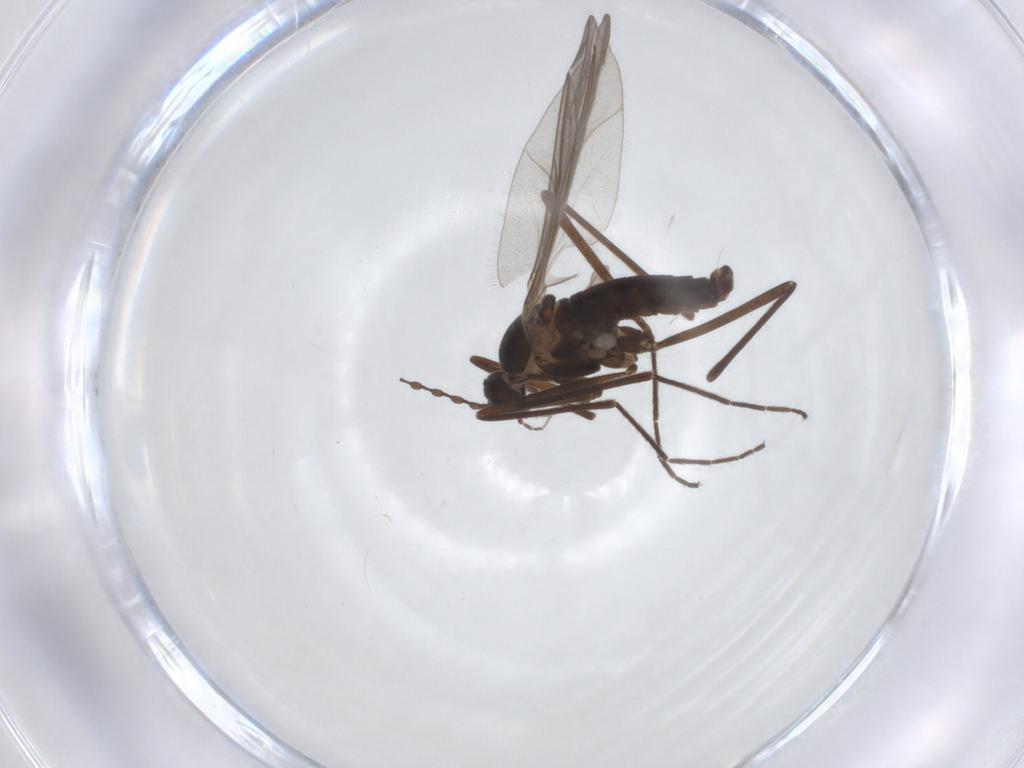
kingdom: Animalia
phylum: Arthropoda
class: Insecta
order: Diptera
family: Cecidomyiidae
